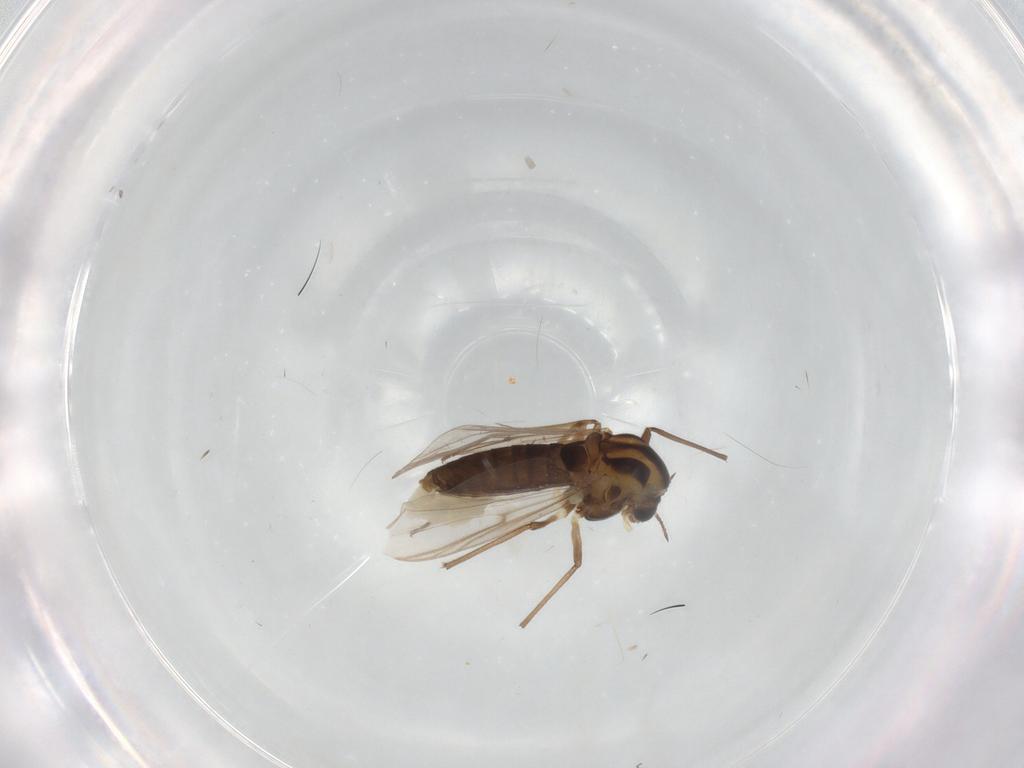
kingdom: Animalia
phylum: Arthropoda
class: Insecta
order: Diptera
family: Chironomidae
